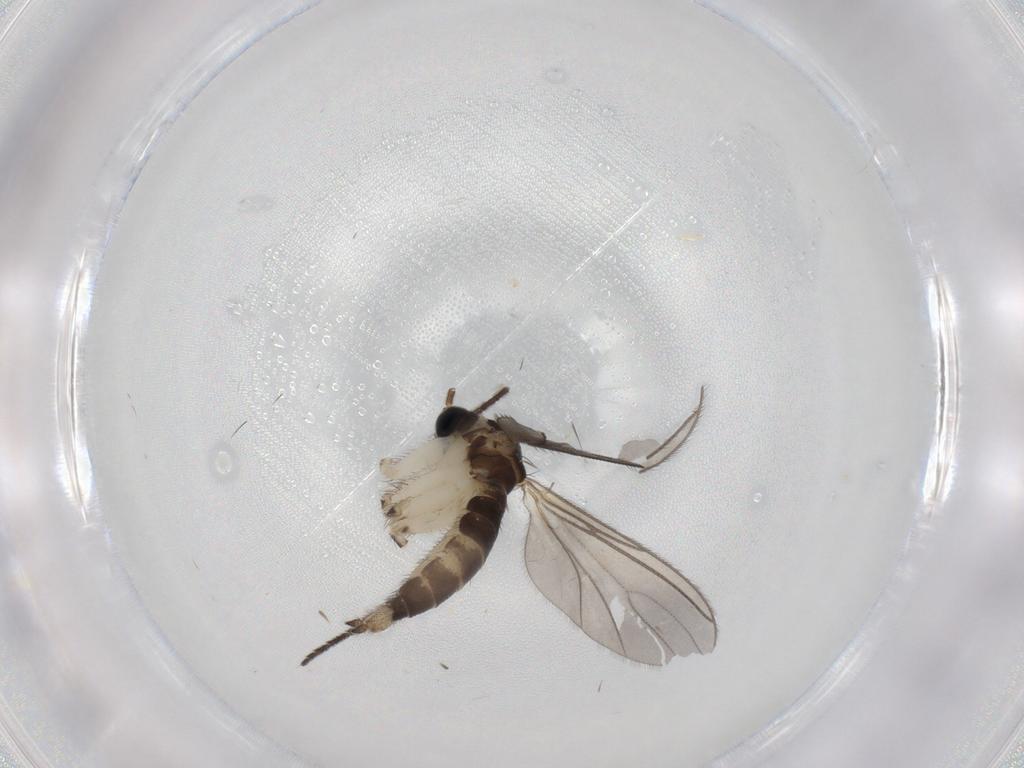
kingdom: Animalia
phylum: Arthropoda
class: Insecta
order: Diptera
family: Sciaridae
